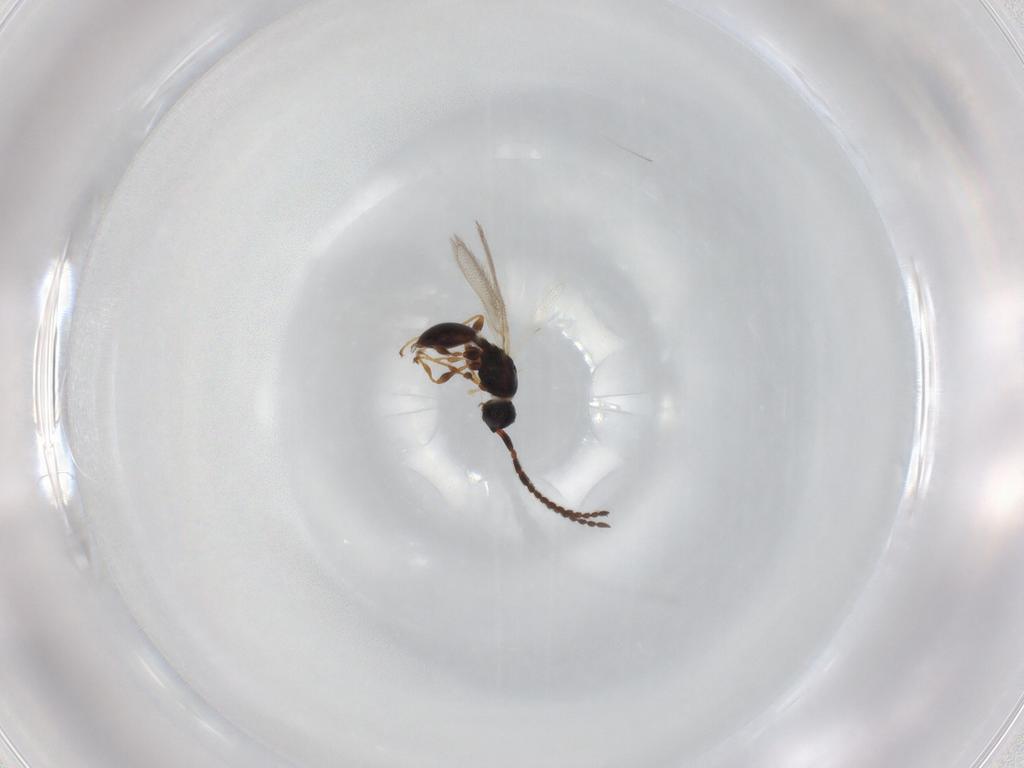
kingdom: Animalia
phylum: Arthropoda
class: Insecta
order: Hymenoptera
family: Diapriidae
